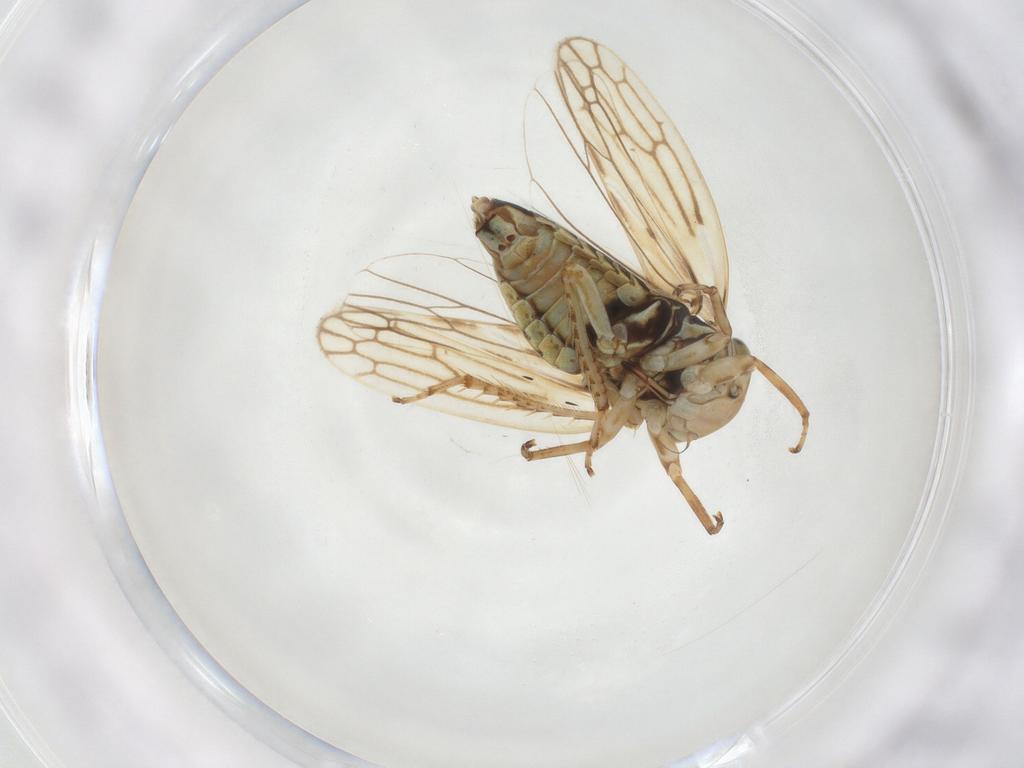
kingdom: Animalia
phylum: Arthropoda
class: Insecta
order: Hemiptera
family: Cicadellidae
